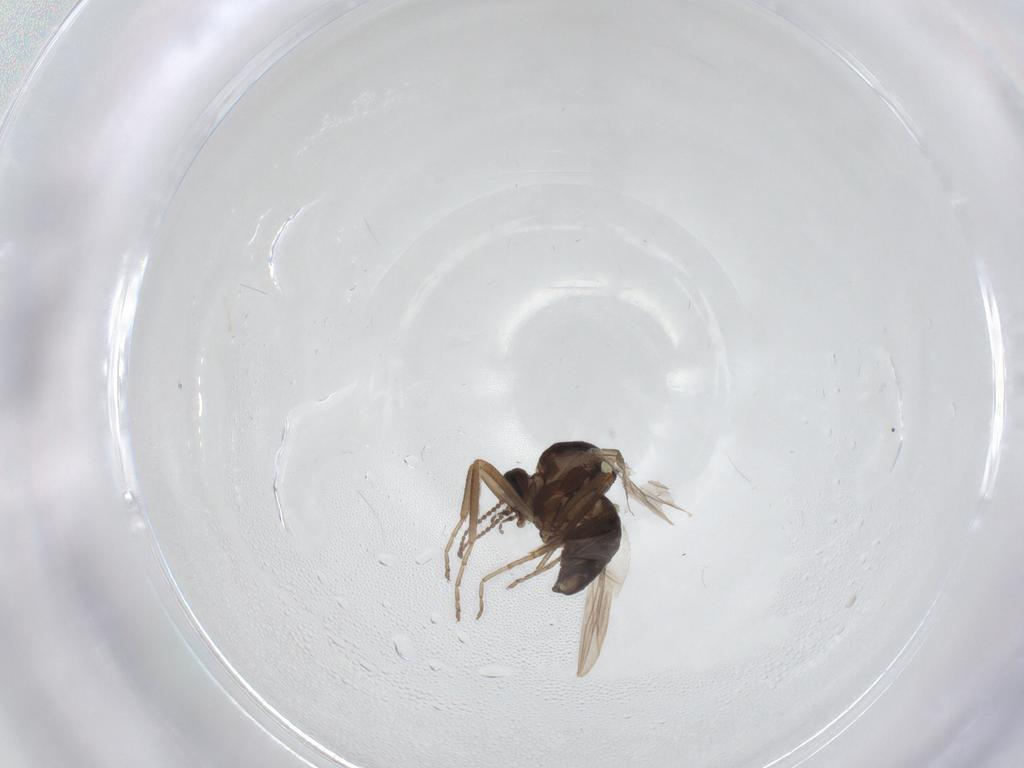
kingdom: Animalia
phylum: Arthropoda
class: Insecta
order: Diptera
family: Ceratopogonidae
